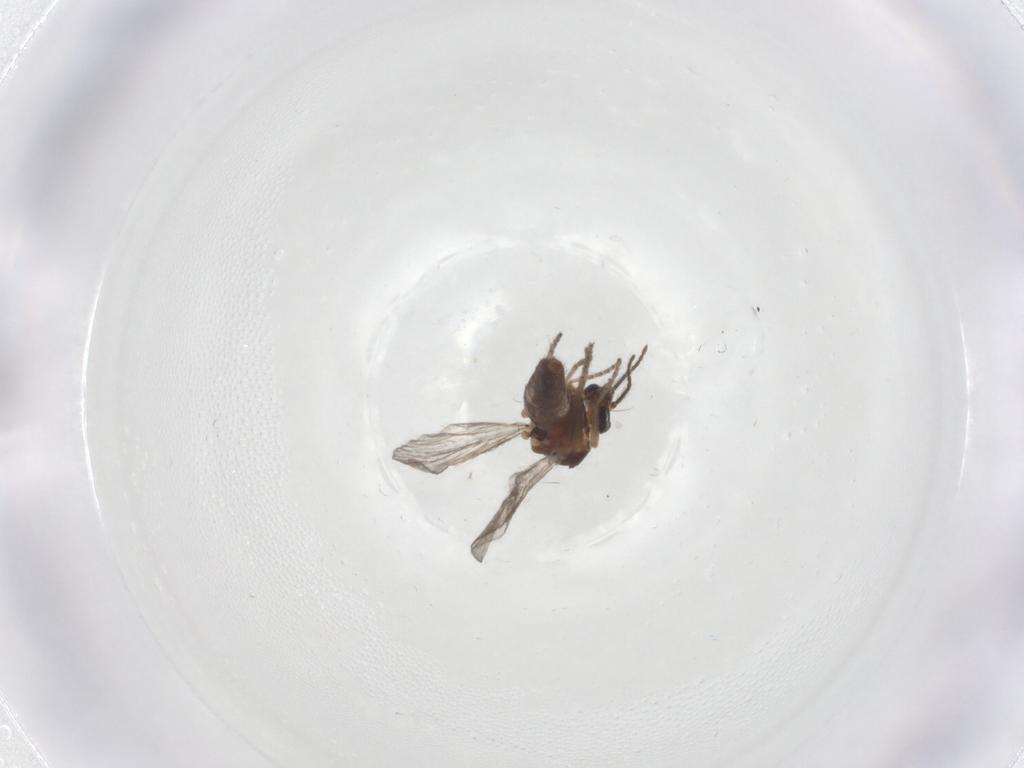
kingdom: Animalia
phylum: Arthropoda
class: Insecta
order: Diptera
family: Ceratopogonidae
